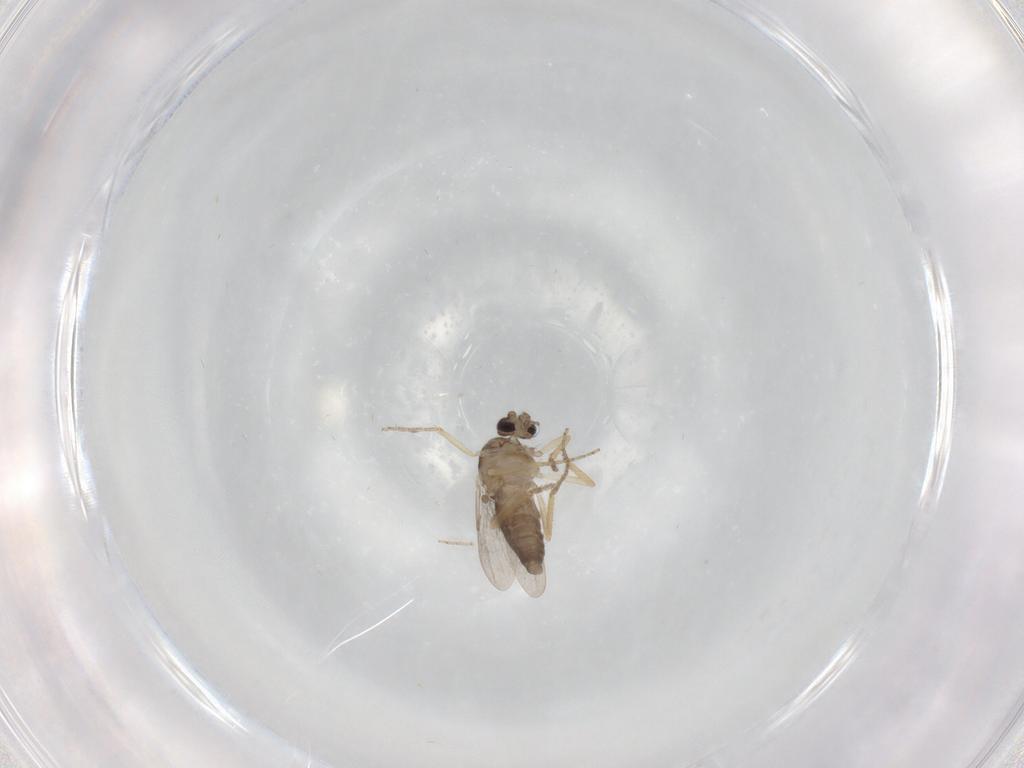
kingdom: Animalia
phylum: Arthropoda
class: Insecta
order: Diptera
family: Ceratopogonidae
